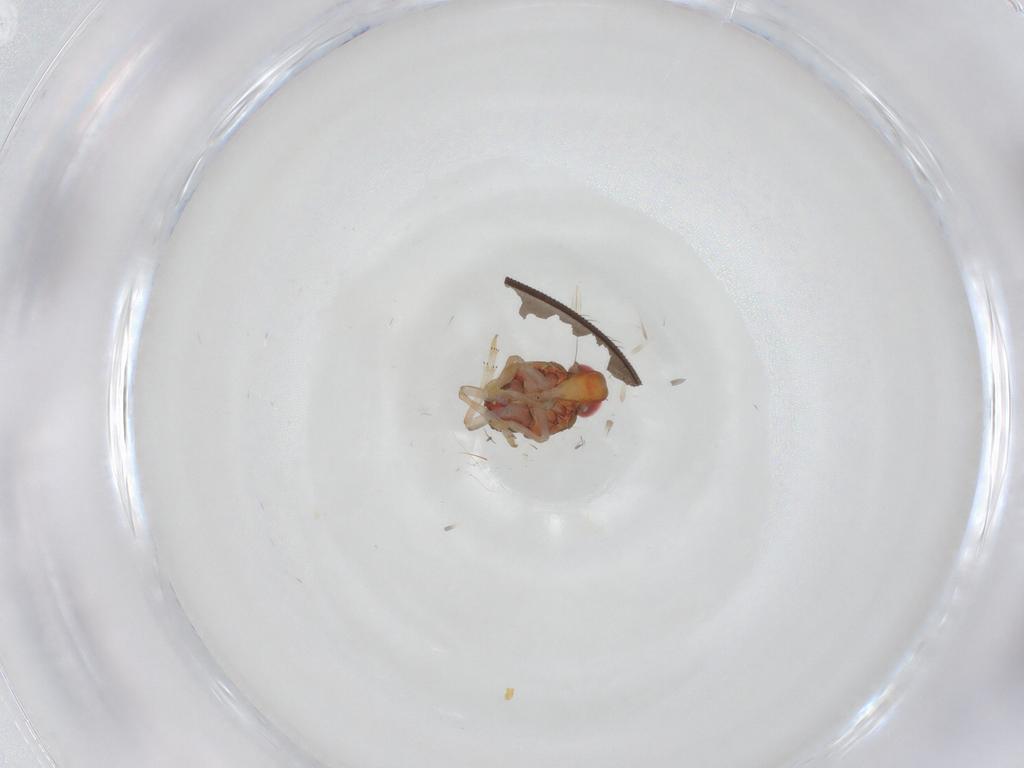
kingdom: Animalia
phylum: Arthropoda
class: Insecta
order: Hemiptera
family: Issidae
